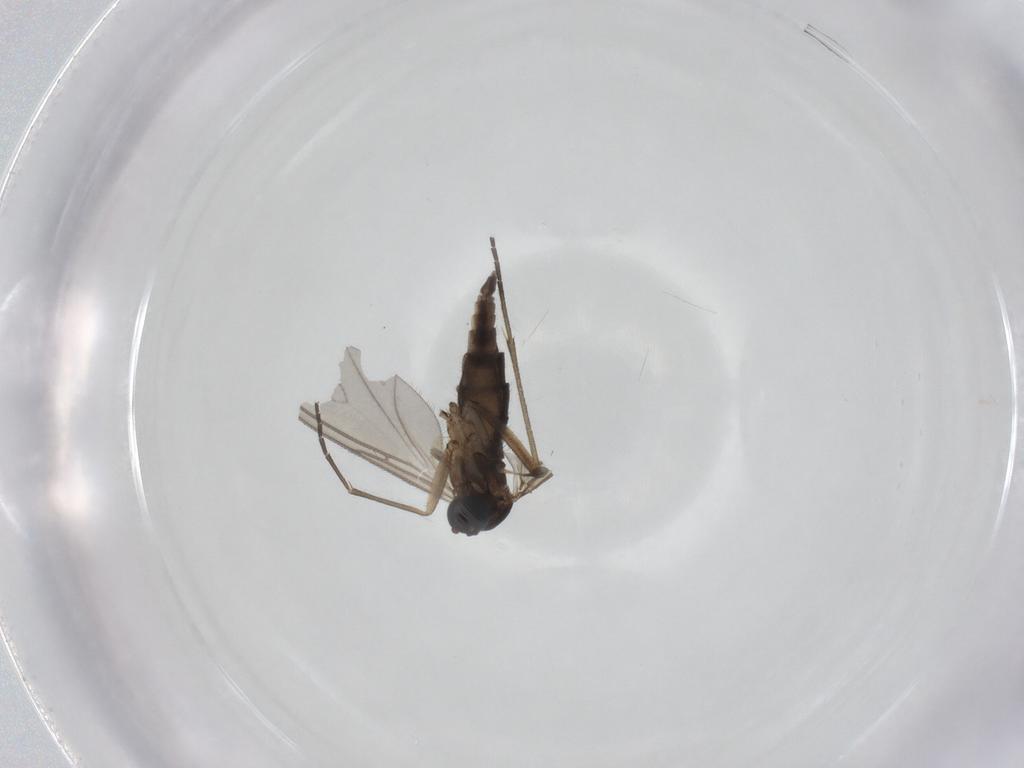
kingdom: Animalia
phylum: Arthropoda
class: Insecta
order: Diptera
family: Sciaridae
